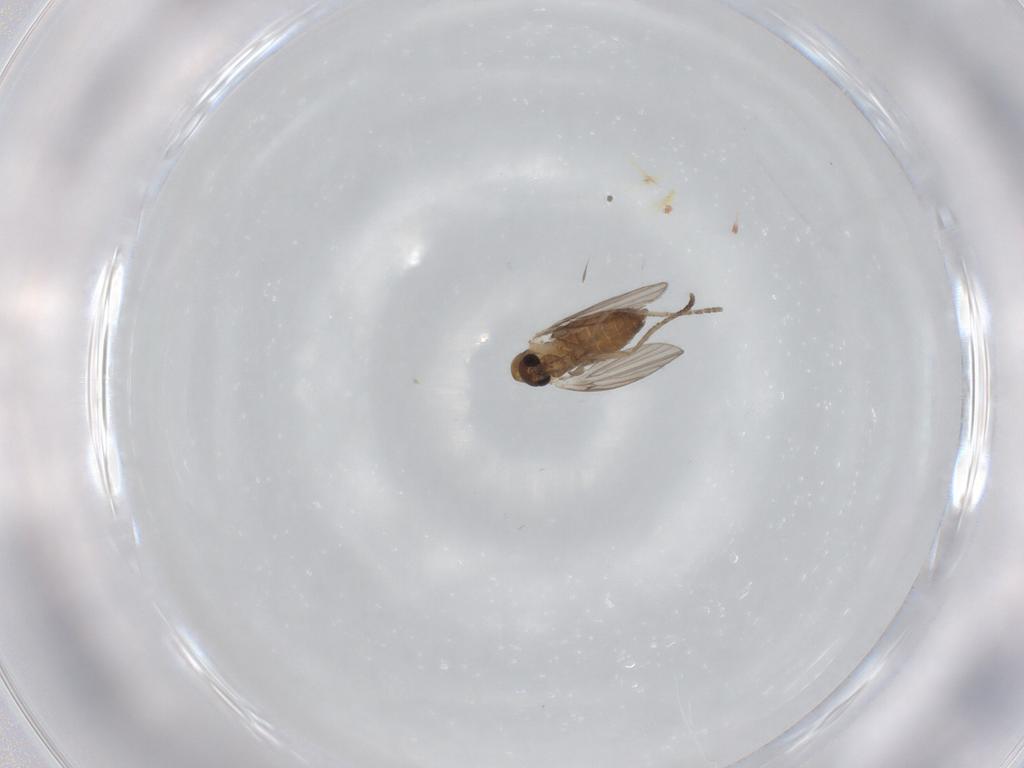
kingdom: Animalia
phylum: Arthropoda
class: Insecta
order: Diptera
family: Psychodidae
